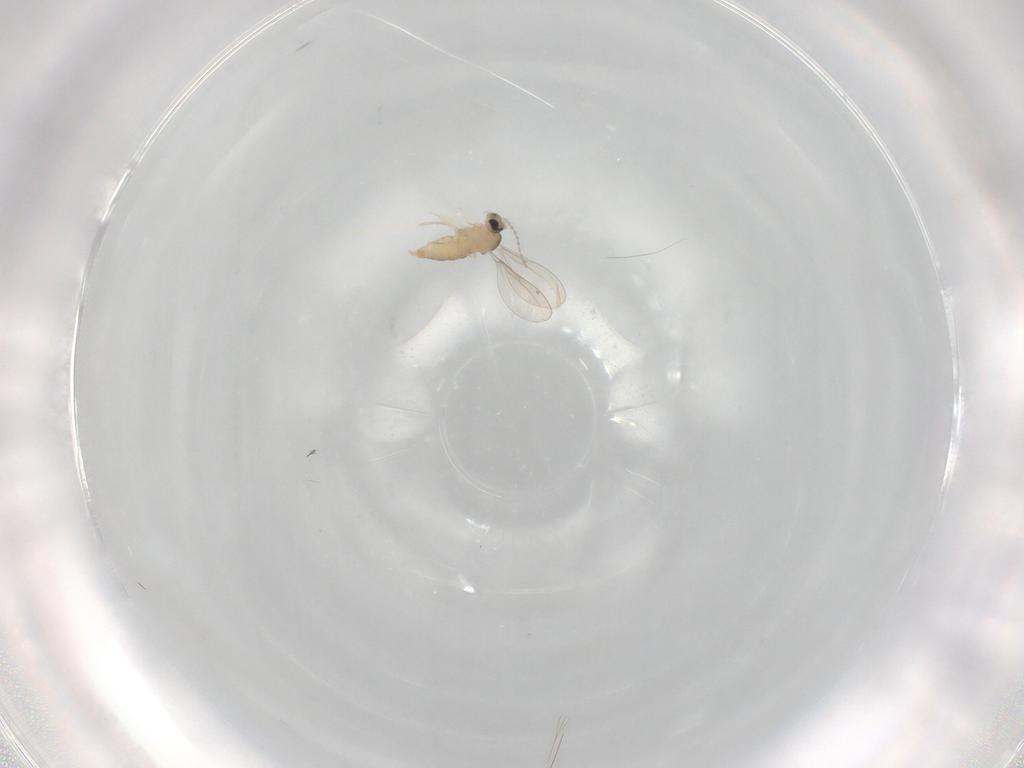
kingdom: Animalia
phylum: Arthropoda
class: Insecta
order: Diptera
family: Cecidomyiidae
